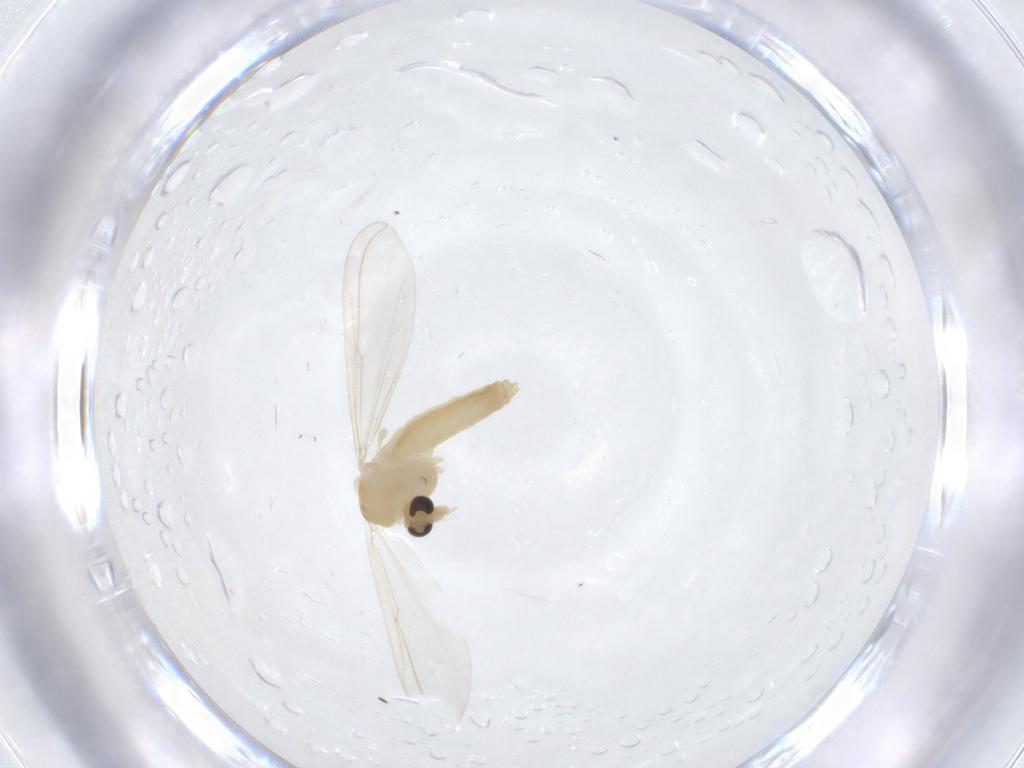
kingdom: Animalia
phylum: Arthropoda
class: Insecta
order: Diptera
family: Chironomidae
